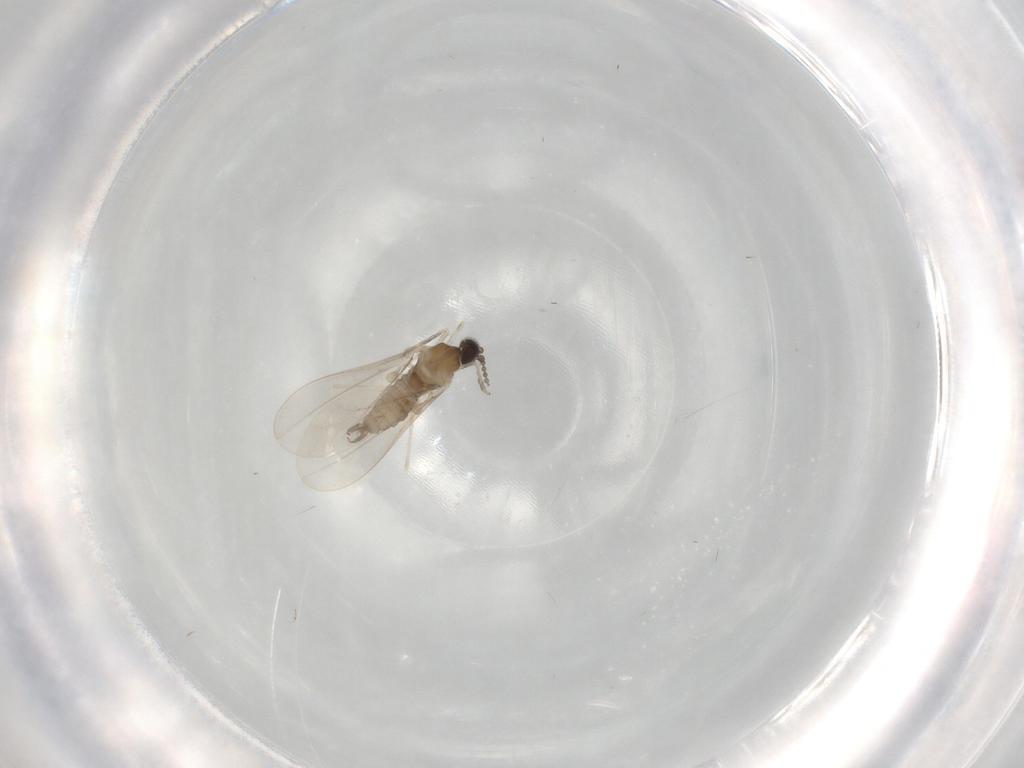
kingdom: Animalia
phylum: Arthropoda
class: Insecta
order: Diptera
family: Cecidomyiidae
